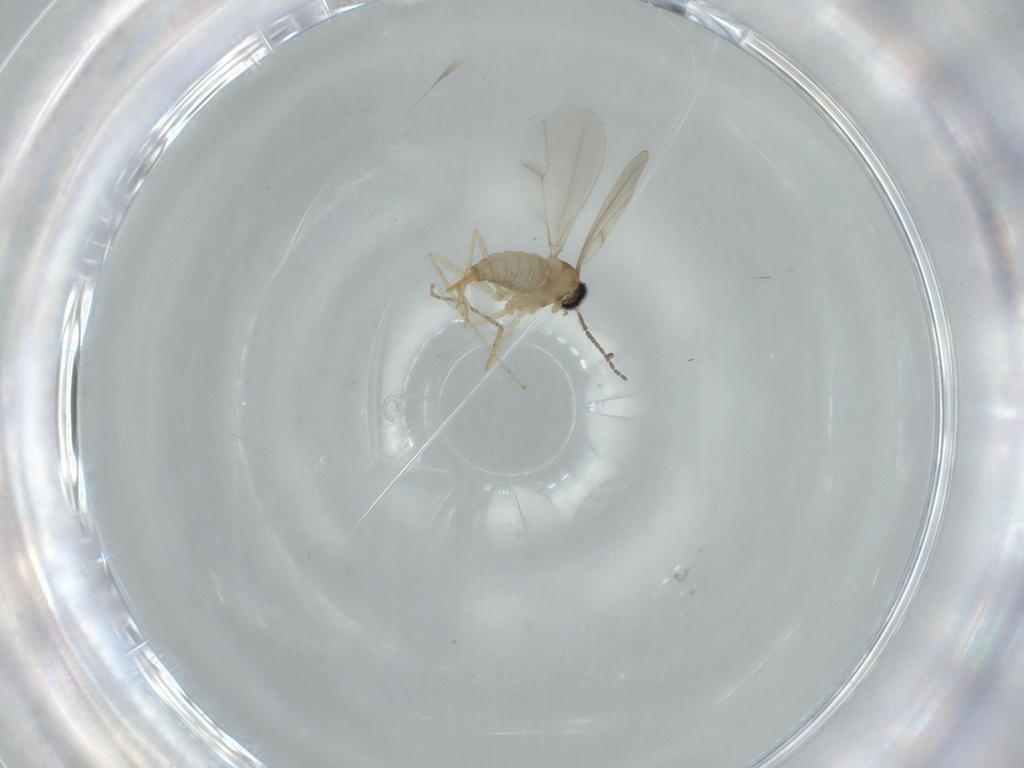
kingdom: Animalia
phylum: Arthropoda
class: Insecta
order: Diptera
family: Cecidomyiidae
